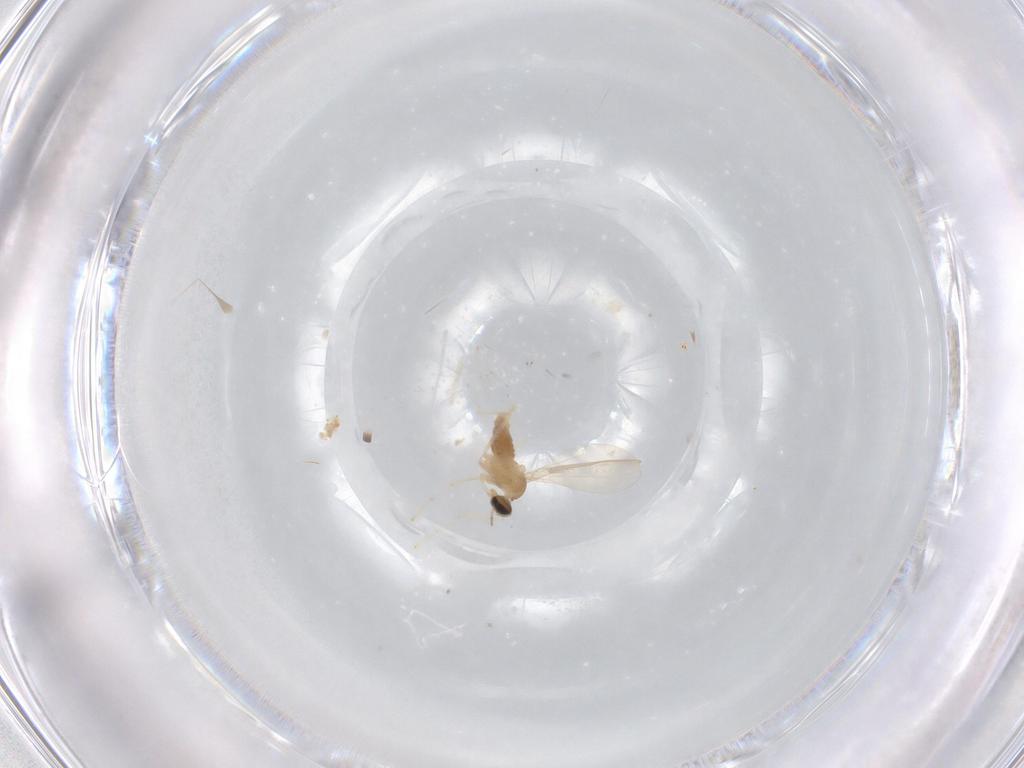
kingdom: Animalia
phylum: Arthropoda
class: Insecta
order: Diptera
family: Cecidomyiidae
